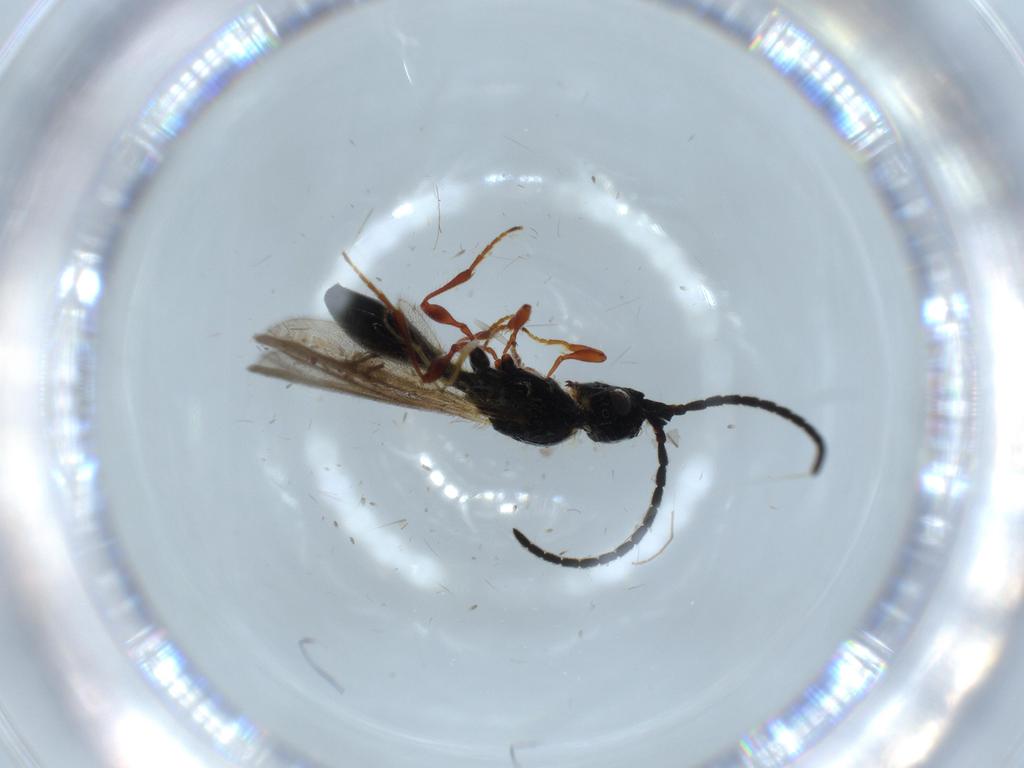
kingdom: Animalia
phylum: Arthropoda
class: Insecta
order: Hymenoptera
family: Diapriidae
